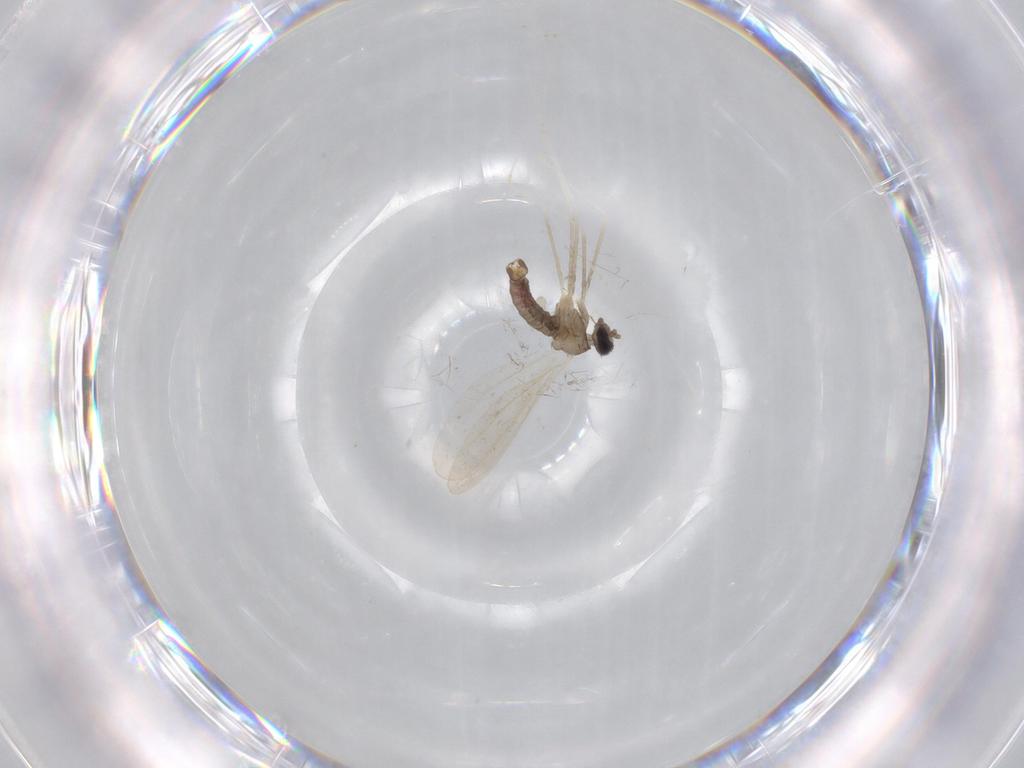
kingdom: Animalia
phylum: Arthropoda
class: Insecta
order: Diptera
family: Cecidomyiidae
